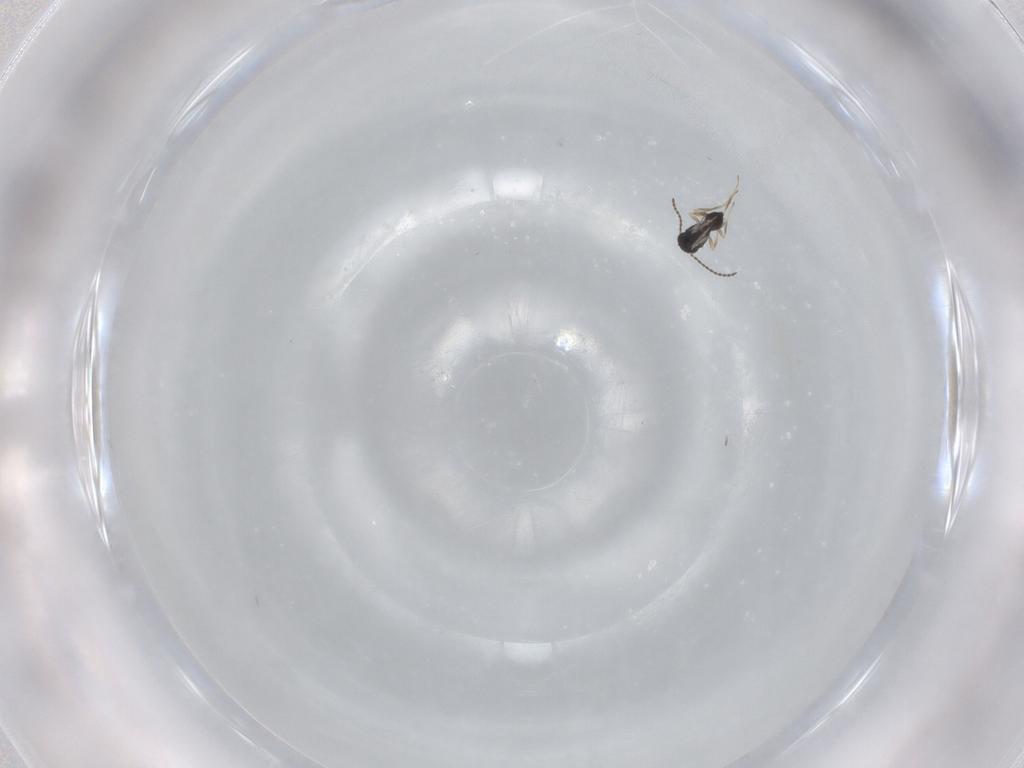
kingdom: Animalia
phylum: Arthropoda
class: Insecta
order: Hymenoptera
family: Scelionidae
